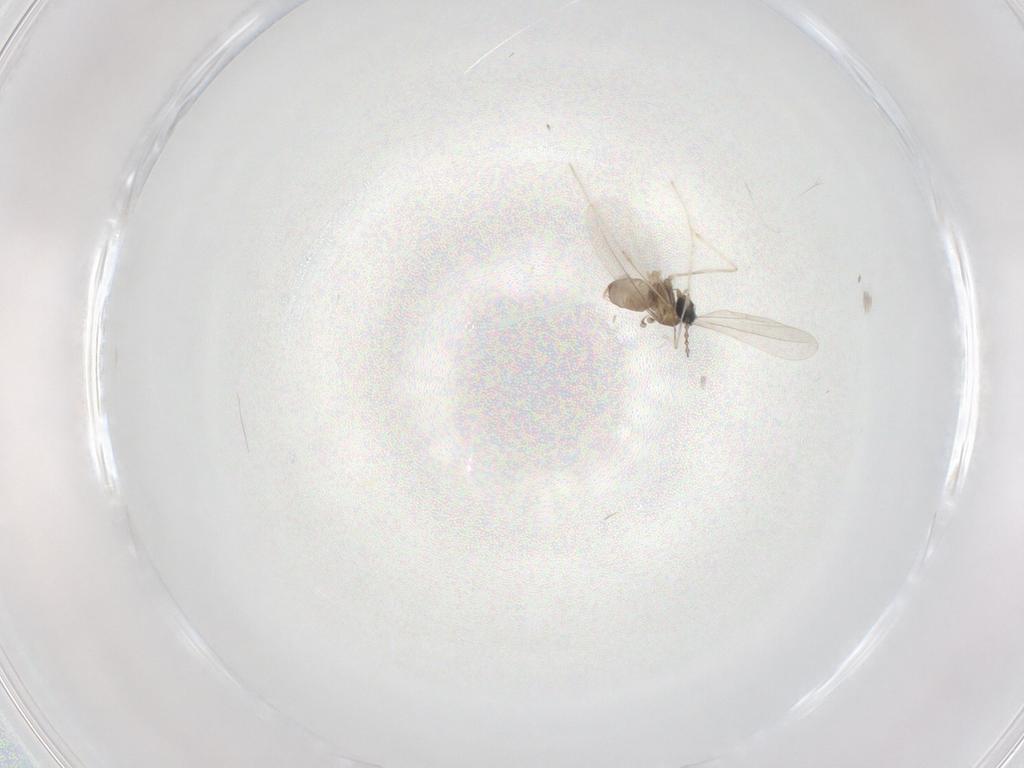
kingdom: Animalia
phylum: Arthropoda
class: Insecta
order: Diptera
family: Cecidomyiidae
